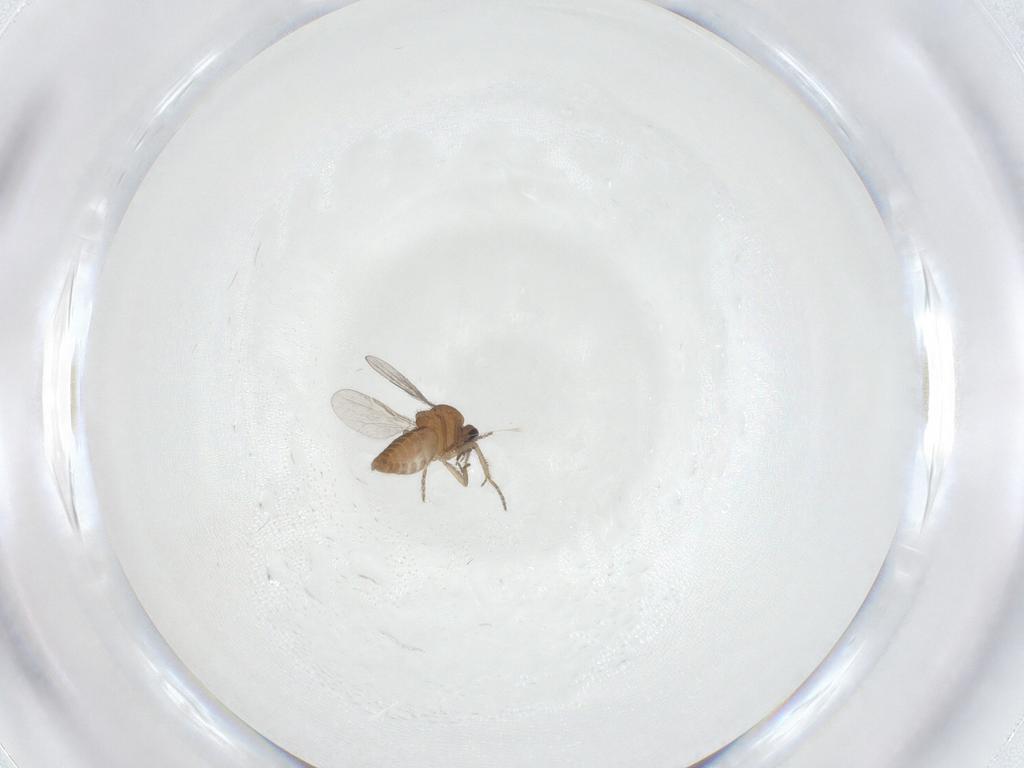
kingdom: Animalia
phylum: Arthropoda
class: Insecta
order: Diptera
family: Ceratopogonidae
